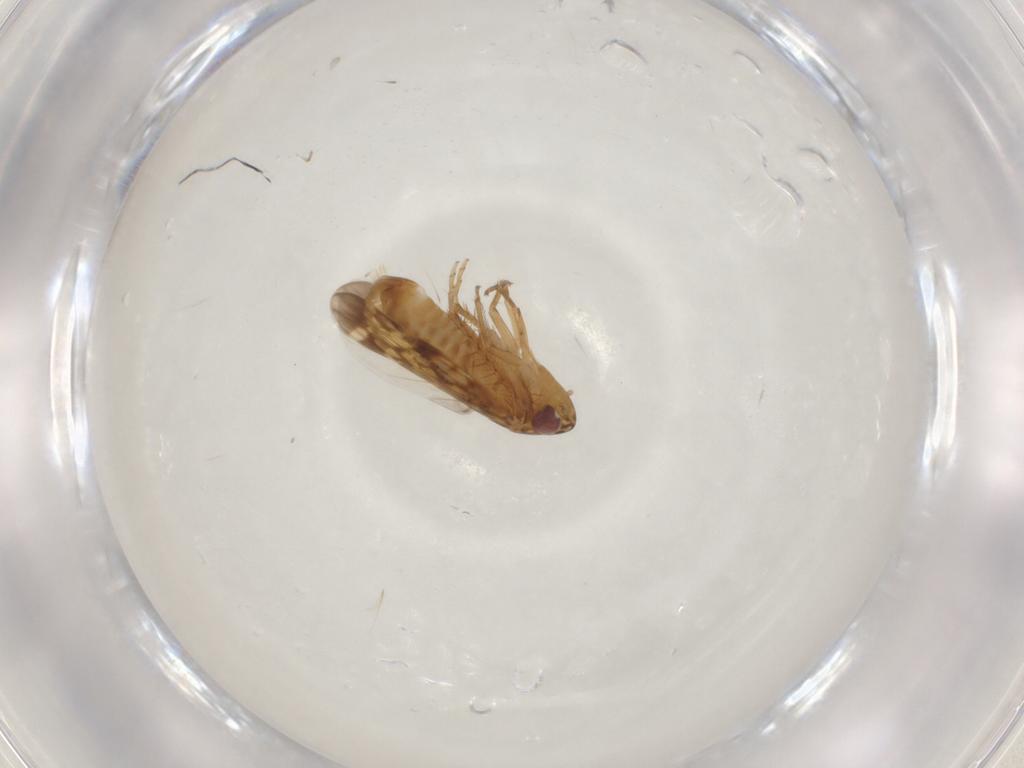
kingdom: Animalia
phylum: Arthropoda
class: Insecta
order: Hemiptera
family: Cicadellidae
